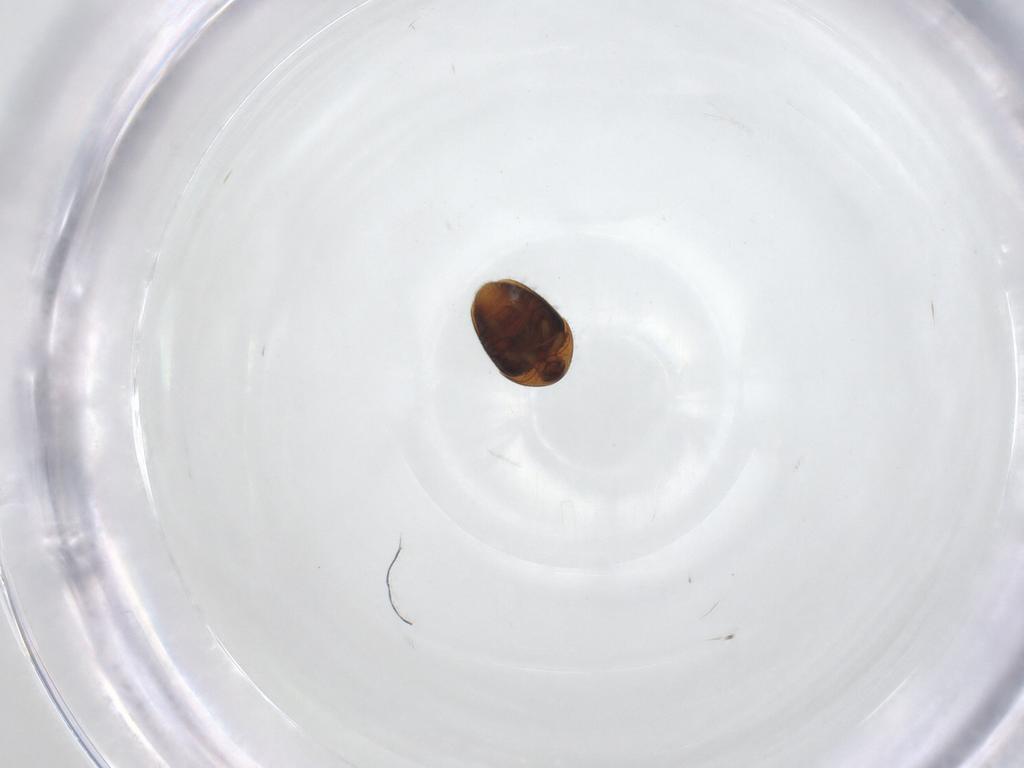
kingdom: Animalia
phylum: Arthropoda
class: Insecta
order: Coleoptera
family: Corylophidae
